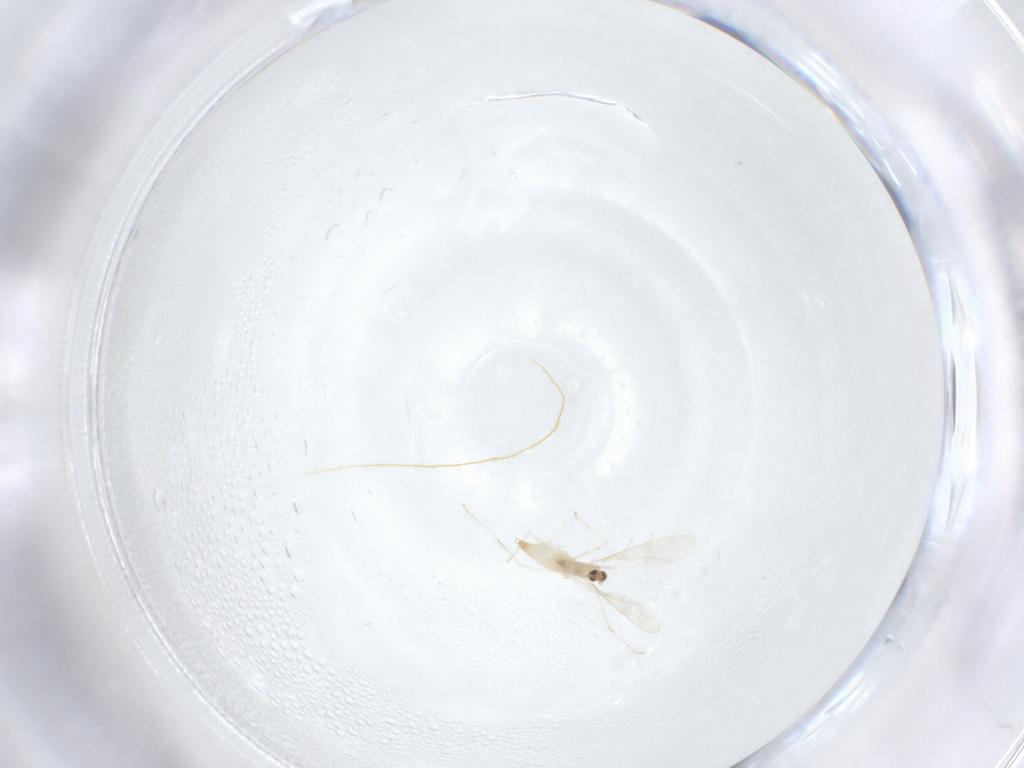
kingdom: Animalia
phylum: Arthropoda
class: Insecta
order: Diptera
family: Cecidomyiidae
